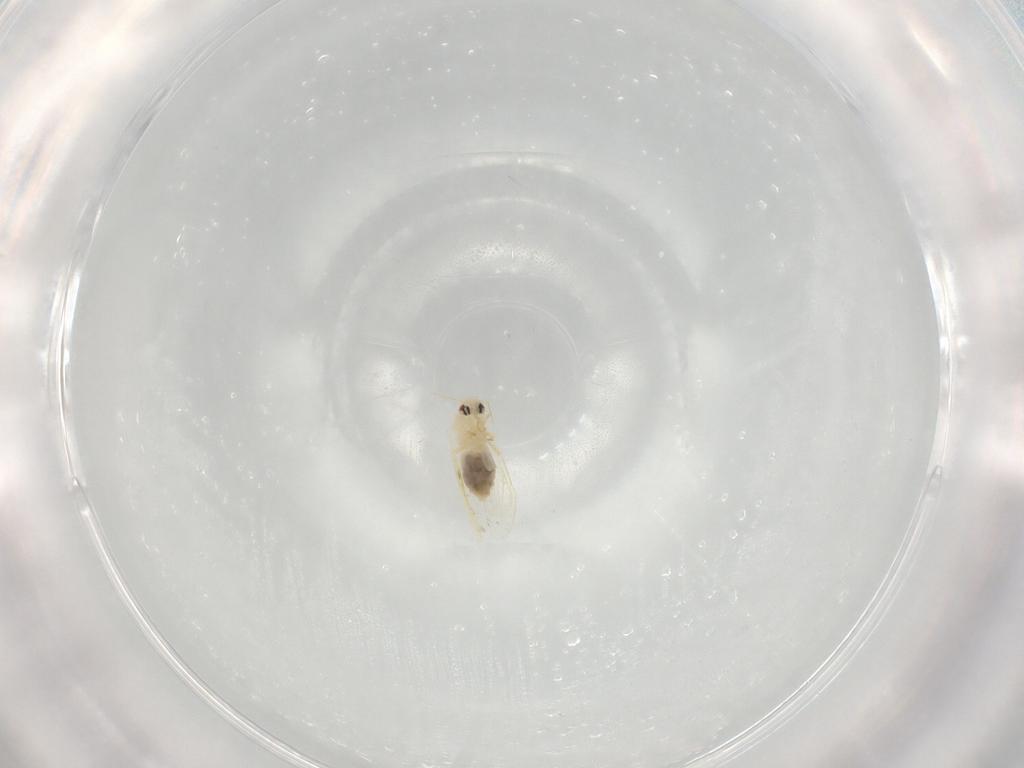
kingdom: Animalia
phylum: Arthropoda
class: Insecta
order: Hemiptera
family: Aleyrodidae
